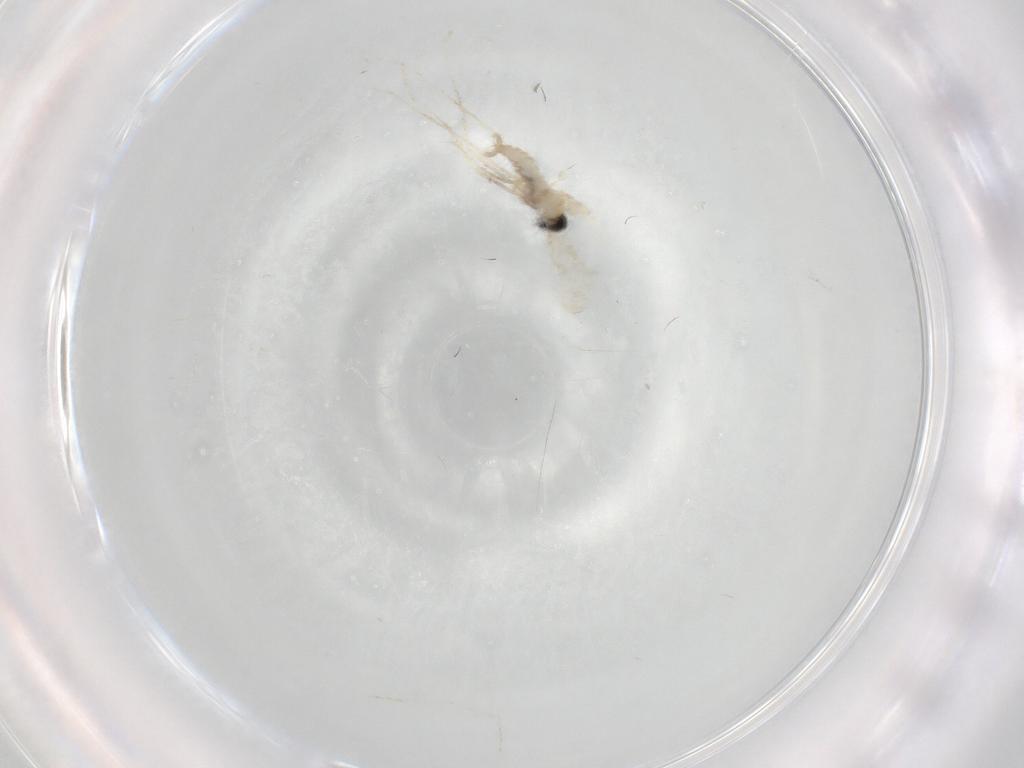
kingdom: Animalia
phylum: Arthropoda
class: Insecta
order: Diptera
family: Cecidomyiidae
